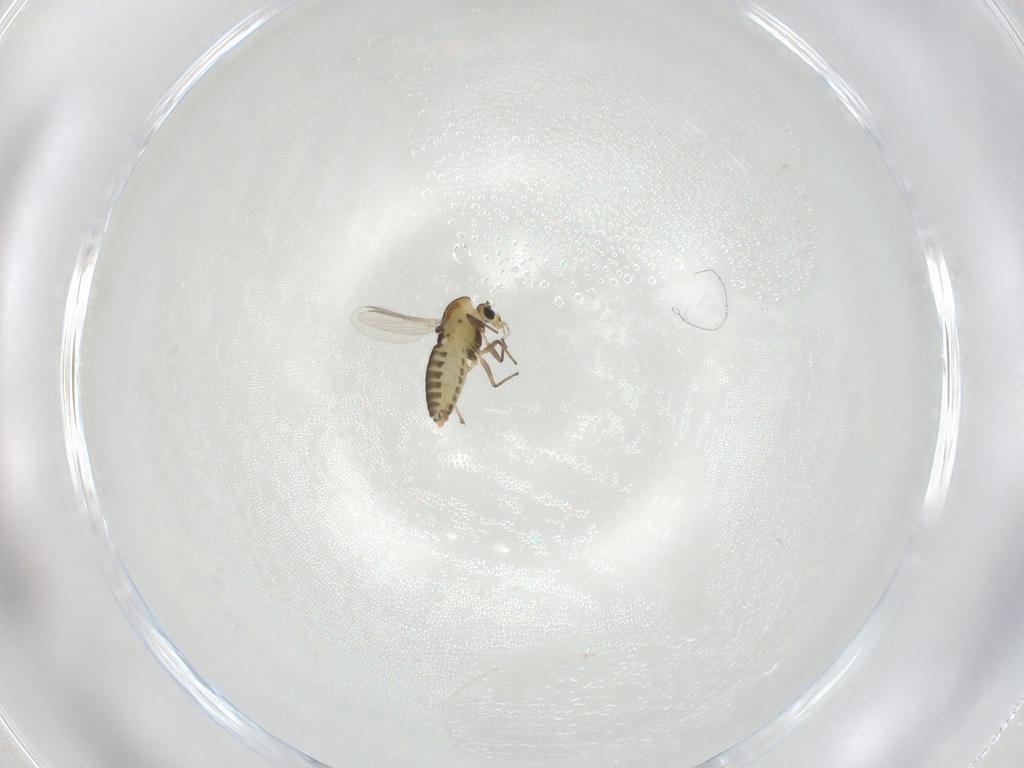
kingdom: Animalia
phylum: Arthropoda
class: Insecta
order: Diptera
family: Chironomidae
